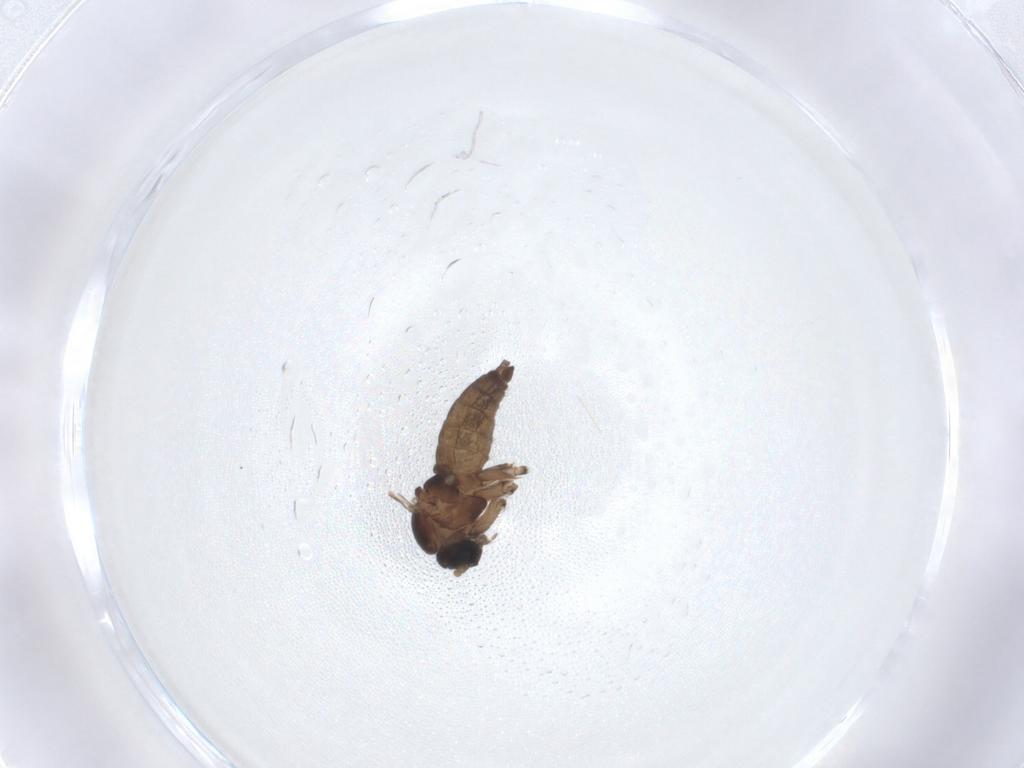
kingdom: Animalia
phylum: Arthropoda
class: Insecta
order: Diptera
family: Sciaridae
